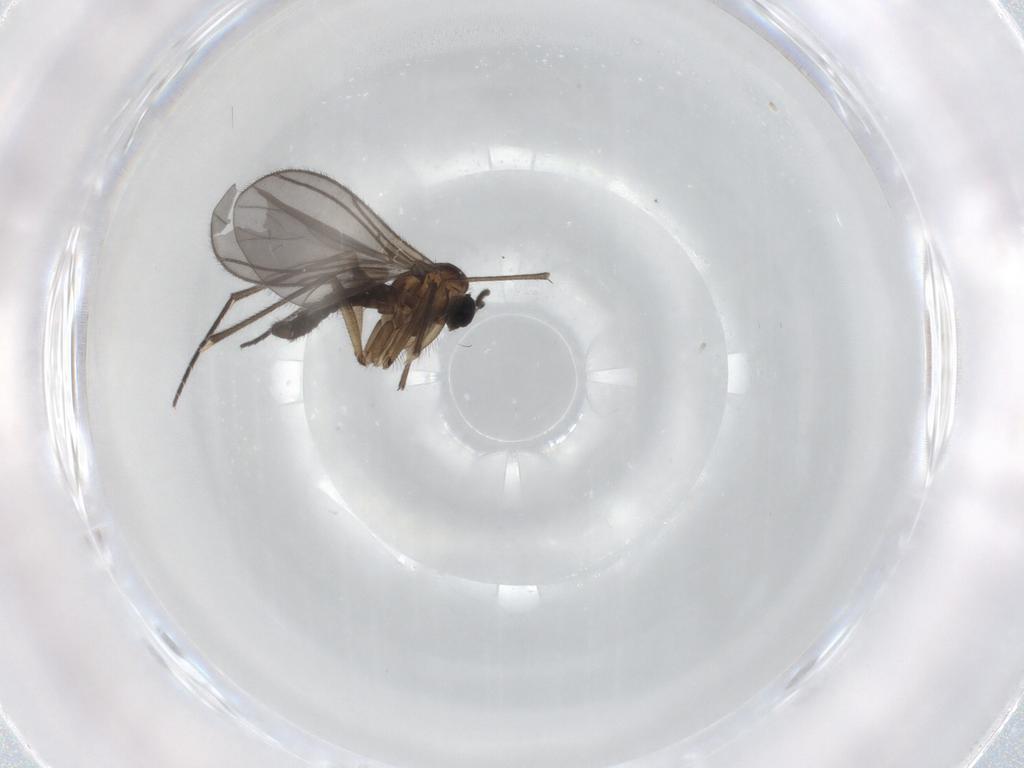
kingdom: Animalia
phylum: Arthropoda
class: Insecta
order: Diptera
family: Sciaridae
